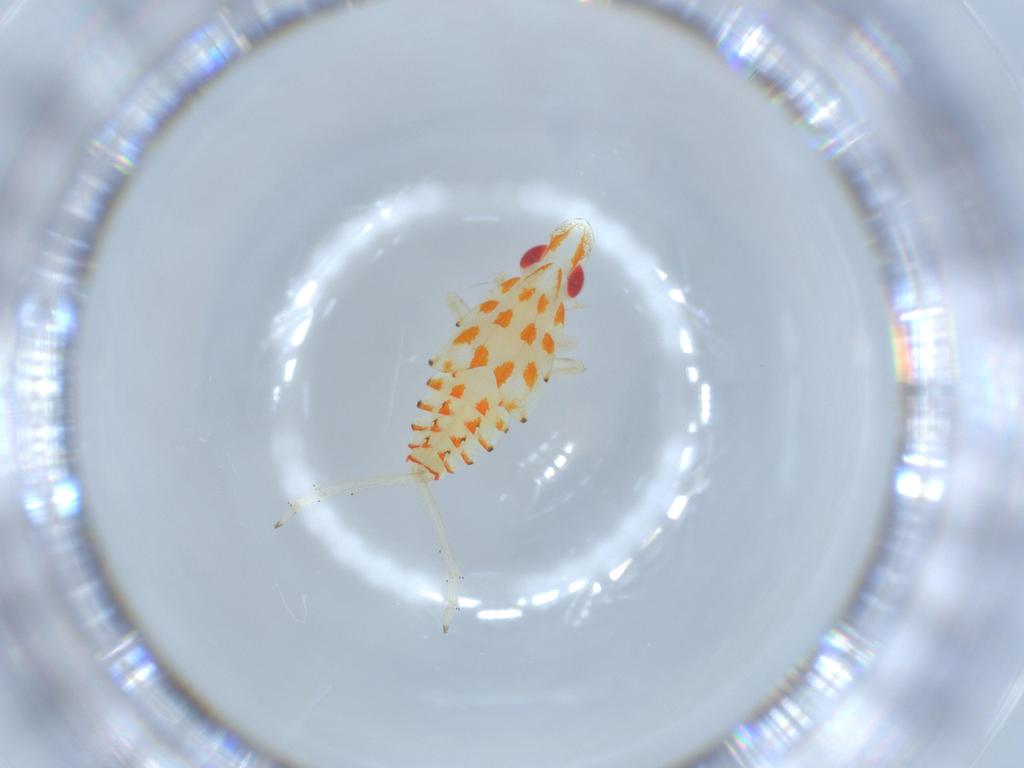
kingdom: Animalia
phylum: Arthropoda
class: Insecta
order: Hemiptera
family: Tropiduchidae
